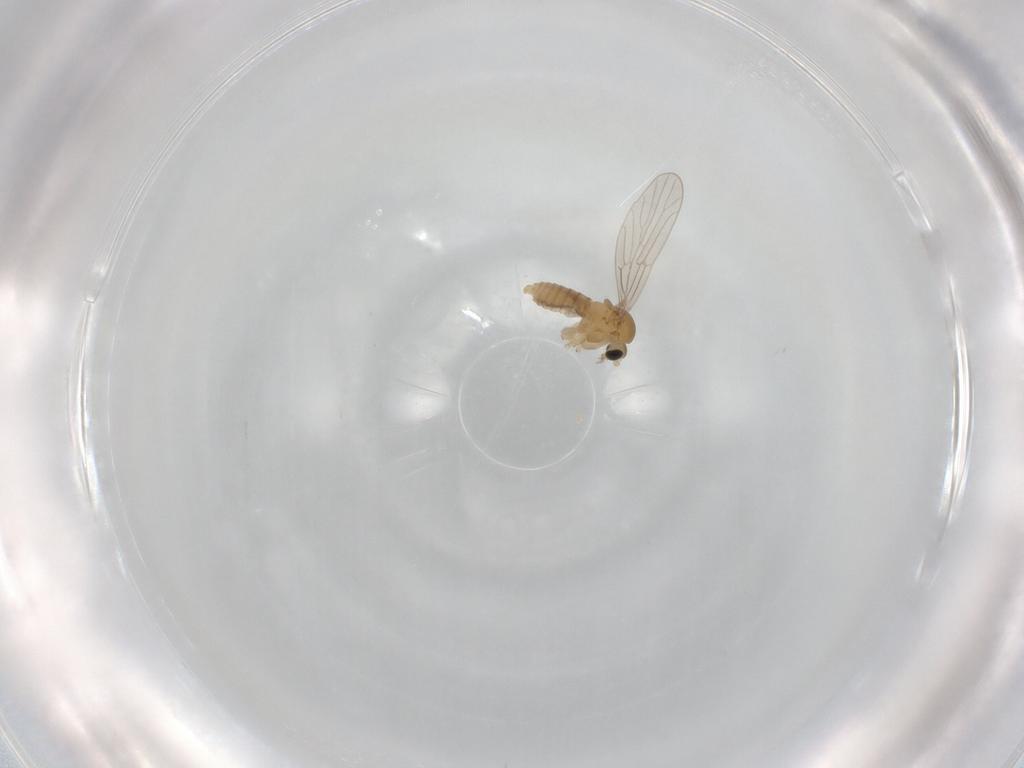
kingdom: Animalia
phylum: Arthropoda
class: Insecta
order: Diptera
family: Psychodidae
